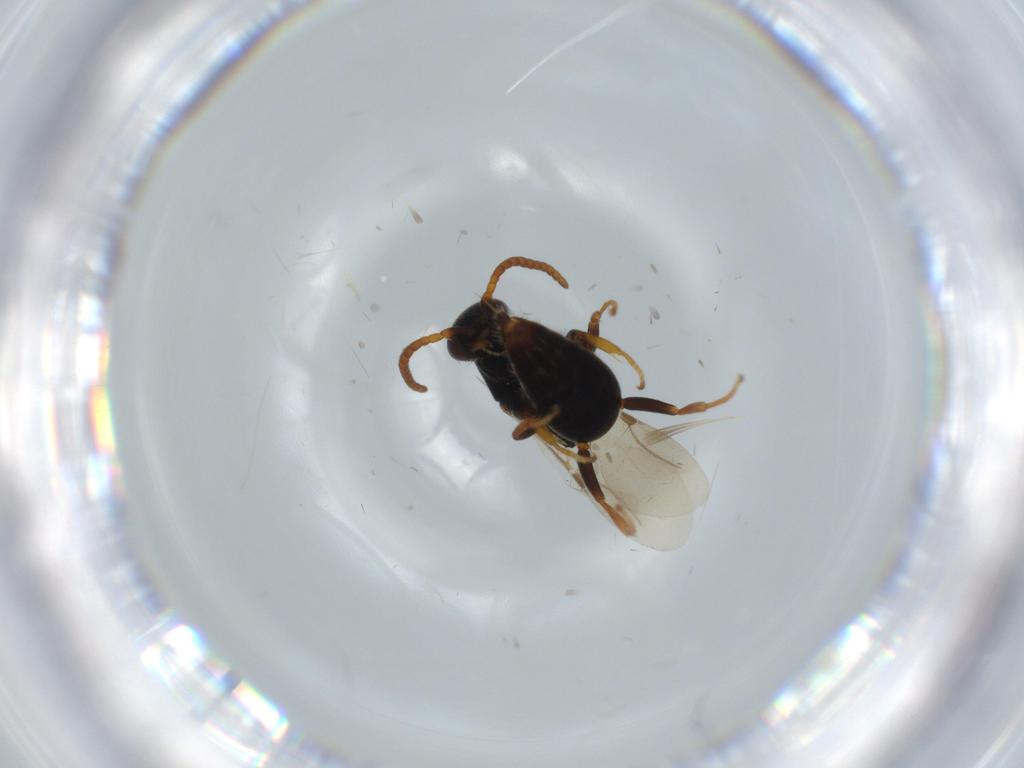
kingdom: Animalia
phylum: Arthropoda
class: Insecta
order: Hymenoptera
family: Bethylidae
